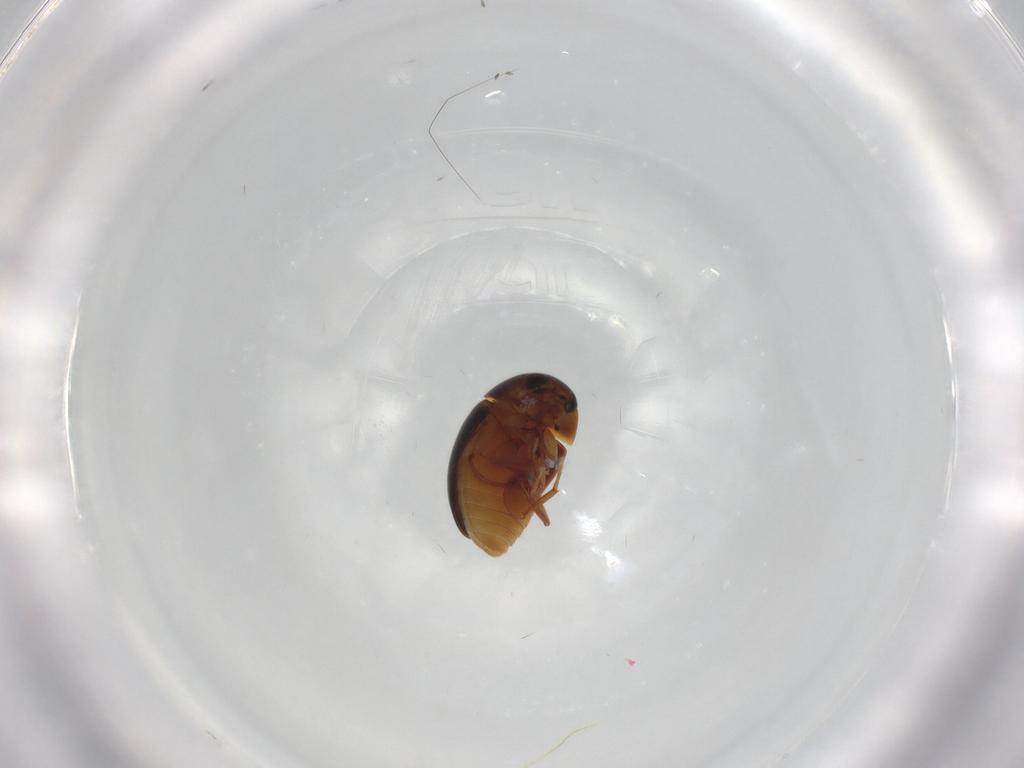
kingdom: Animalia
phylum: Arthropoda
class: Insecta
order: Coleoptera
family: Phalacridae
